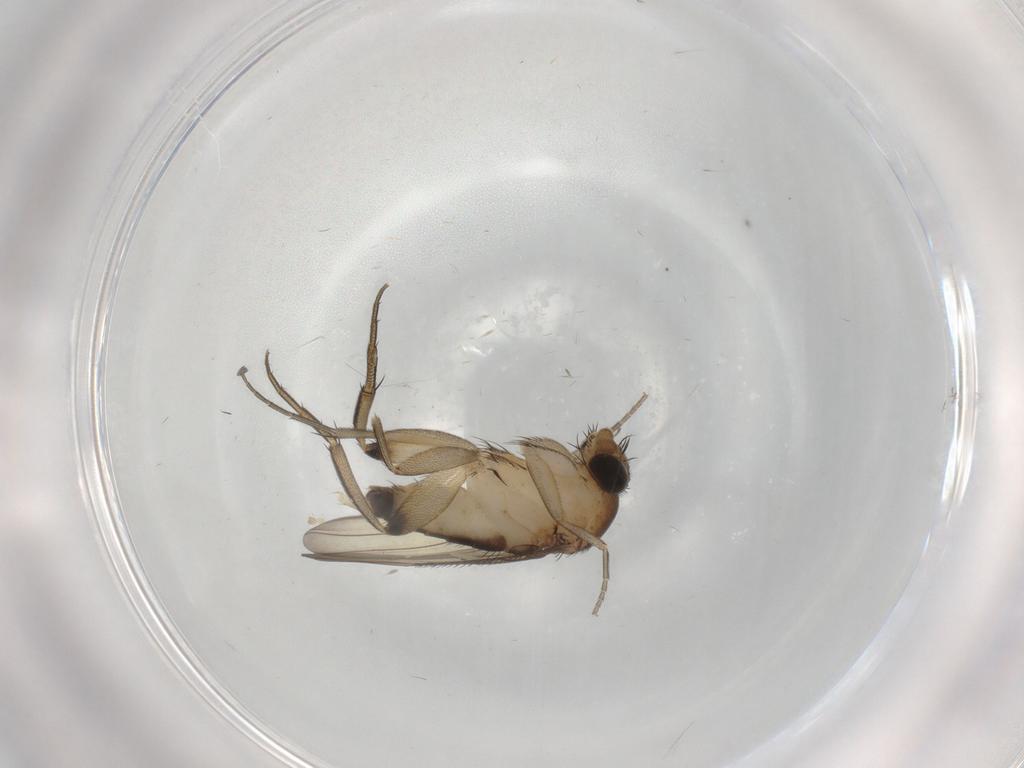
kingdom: Animalia
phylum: Arthropoda
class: Insecta
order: Diptera
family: Phoridae
